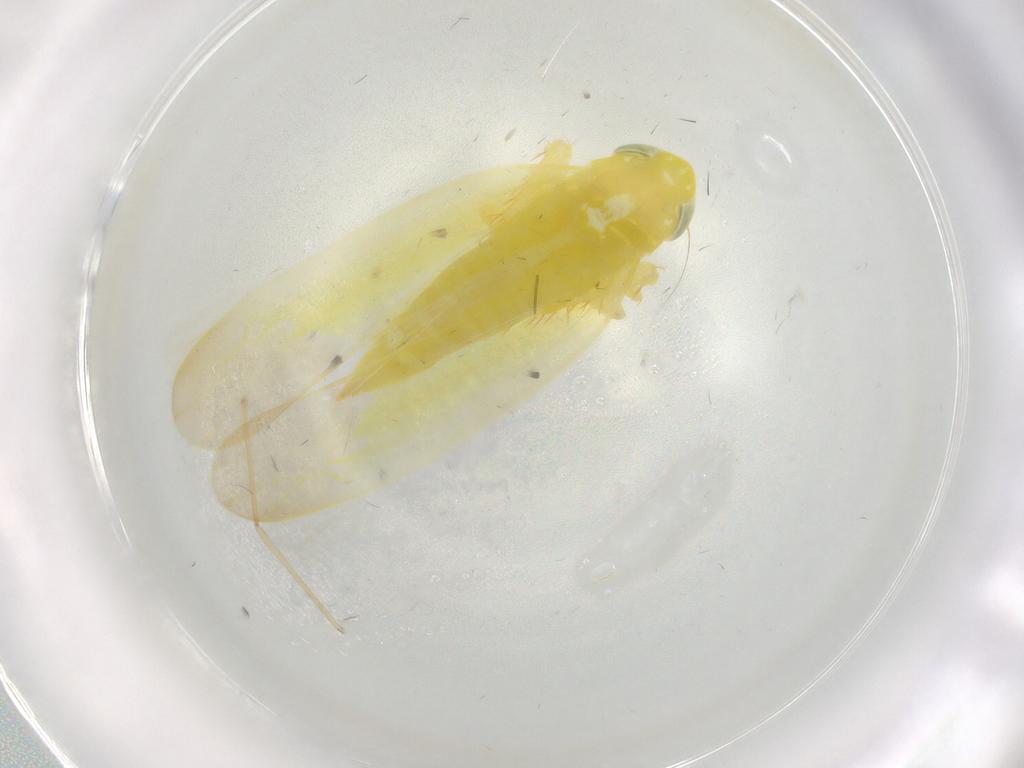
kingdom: Animalia
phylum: Arthropoda
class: Insecta
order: Hemiptera
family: Cicadellidae
